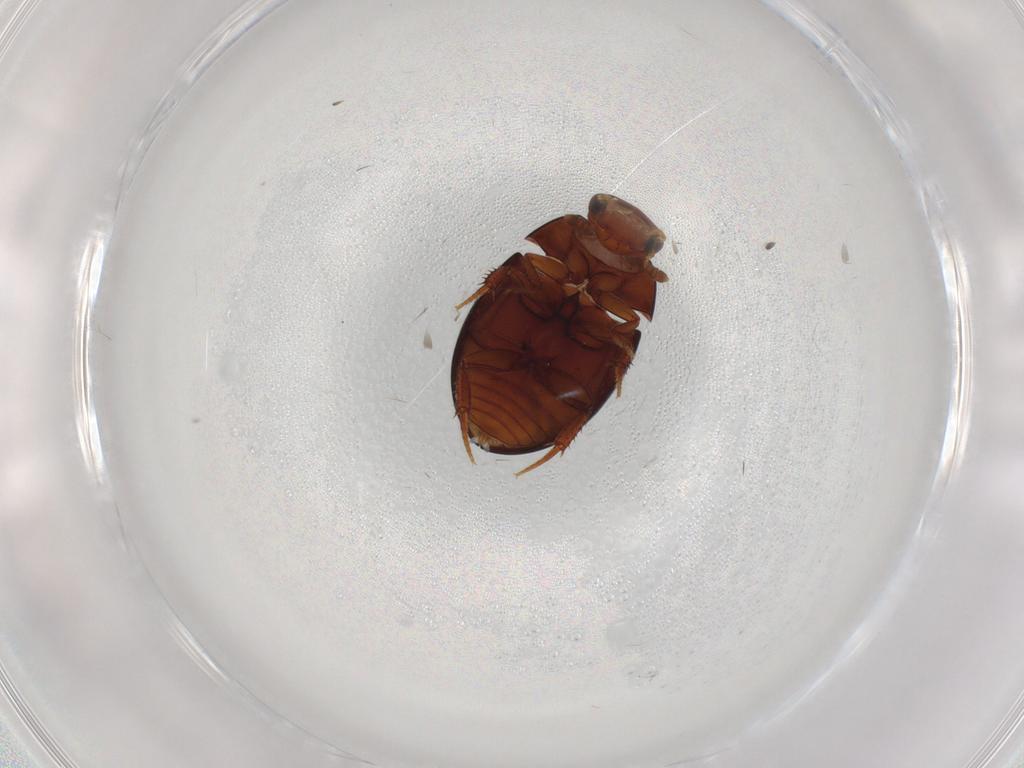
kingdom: Animalia
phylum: Arthropoda
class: Insecta
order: Coleoptera
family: Hydrophilidae
